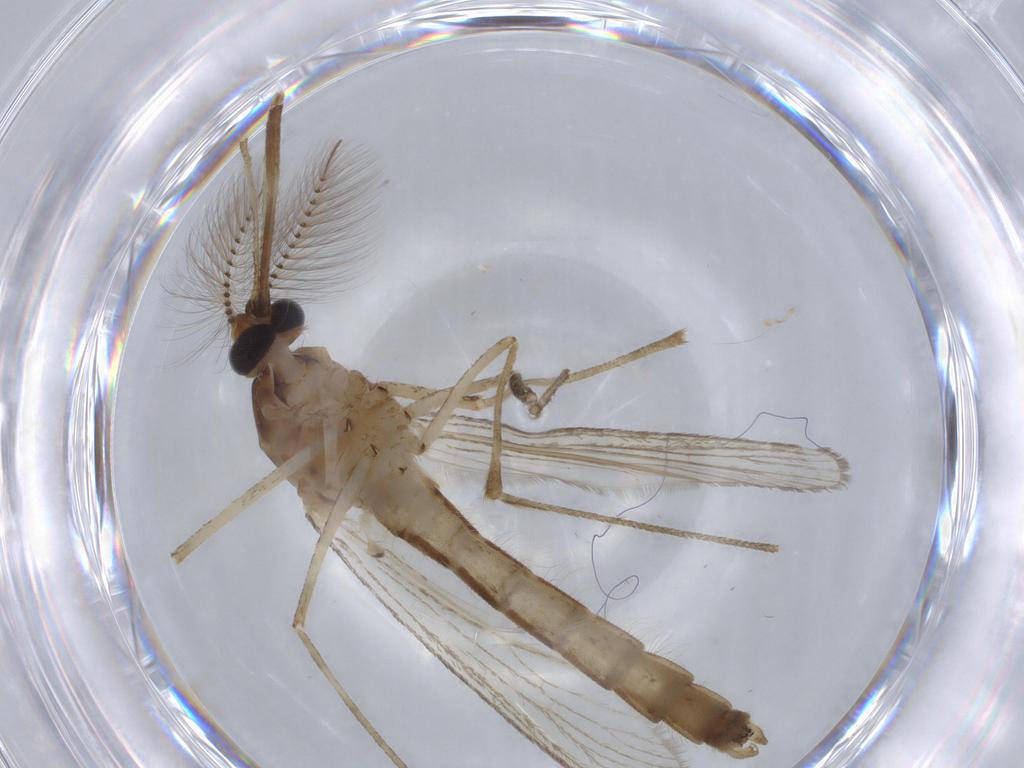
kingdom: Animalia
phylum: Arthropoda
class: Insecta
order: Diptera
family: Culicidae
